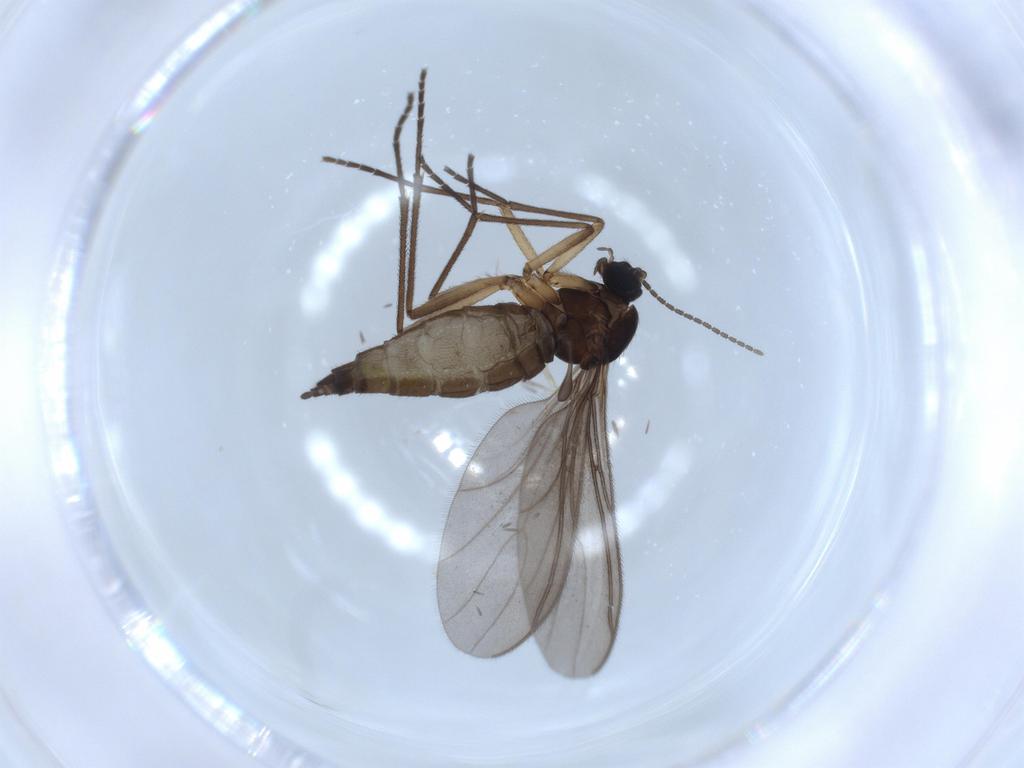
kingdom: Animalia
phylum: Arthropoda
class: Insecta
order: Diptera
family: Sciaridae
